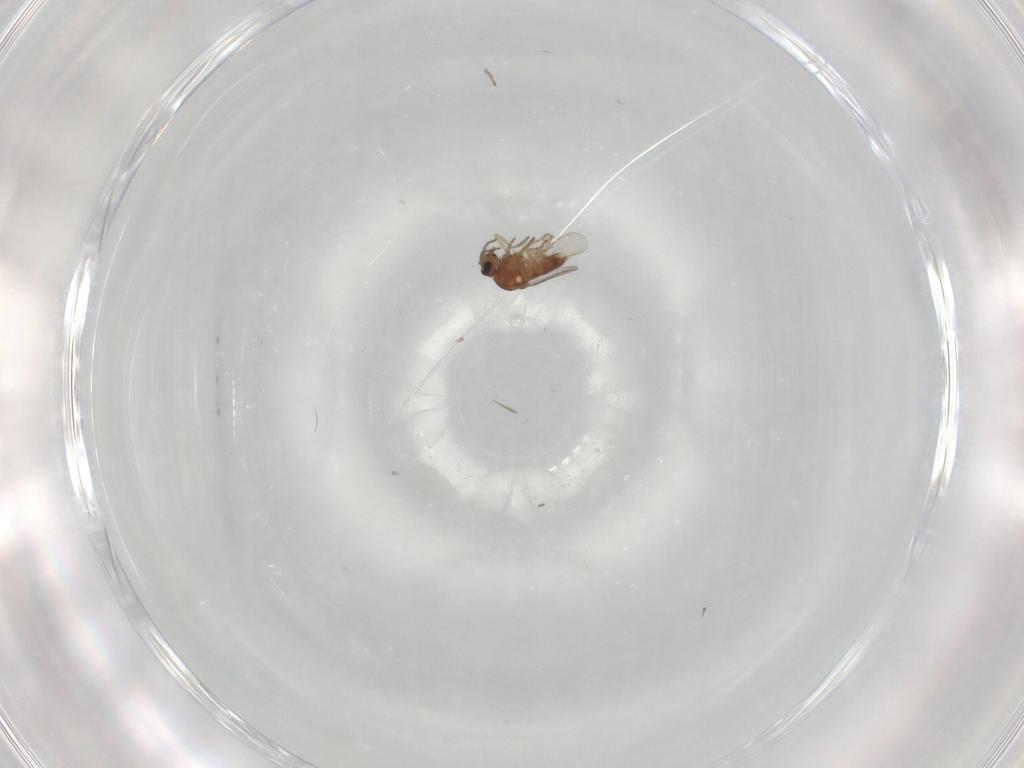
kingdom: Animalia
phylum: Arthropoda
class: Insecta
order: Diptera
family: Ceratopogonidae
